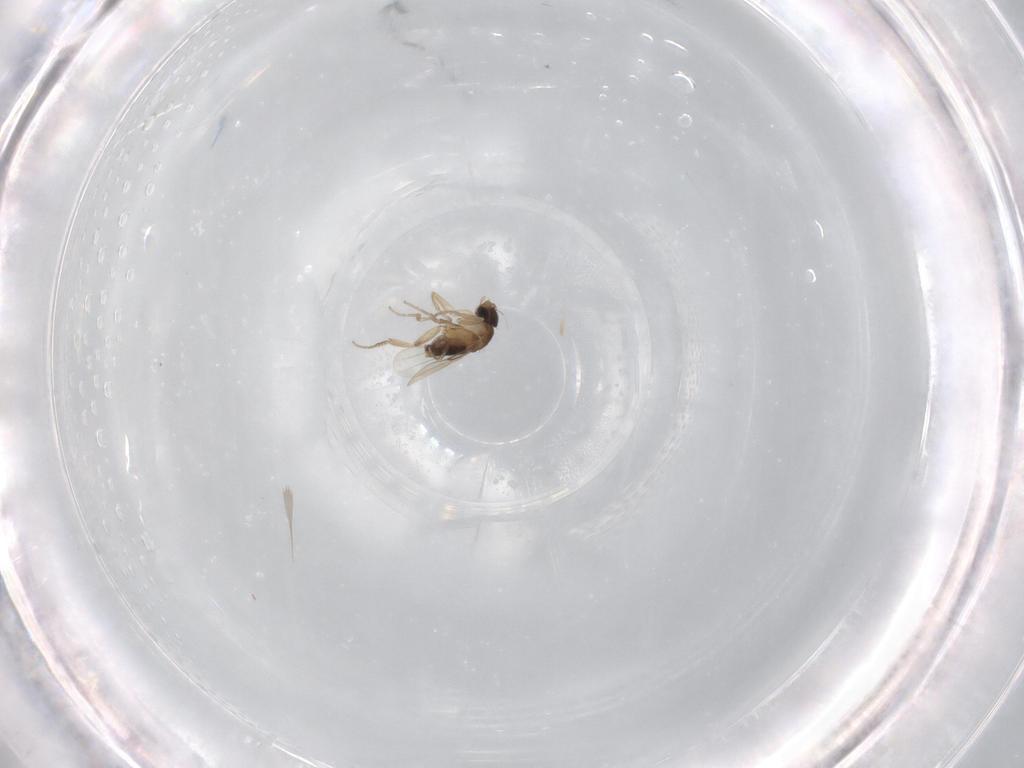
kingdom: Animalia
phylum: Arthropoda
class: Insecta
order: Diptera
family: Phoridae
